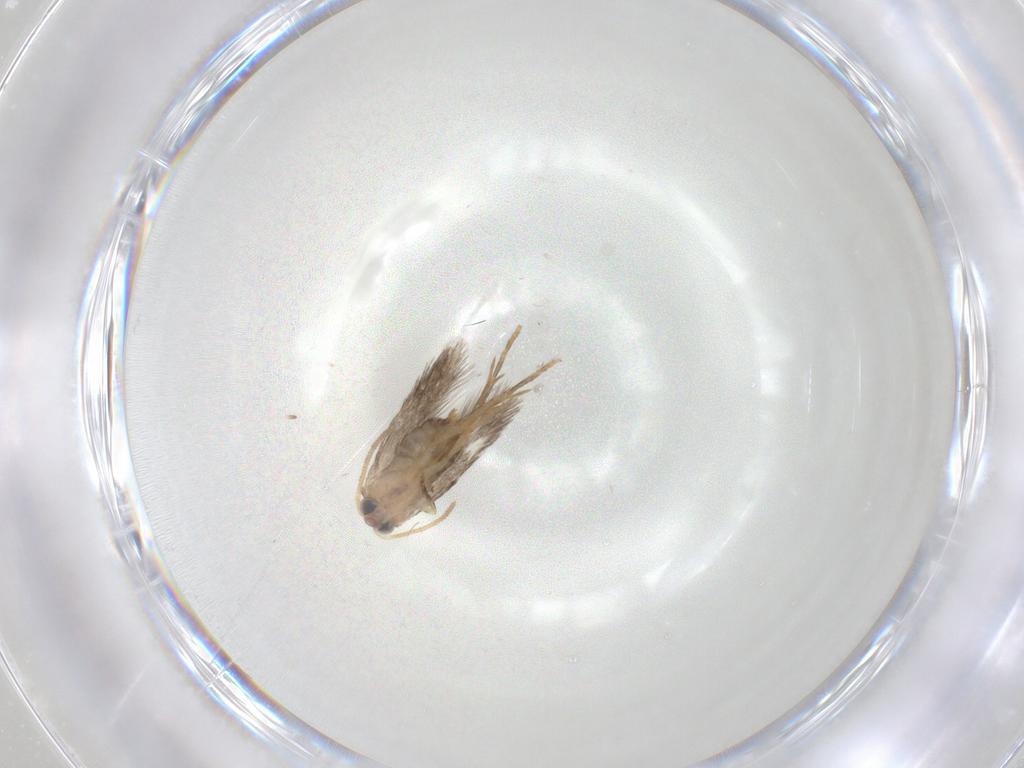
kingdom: Animalia
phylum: Arthropoda
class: Insecta
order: Lepidoptera
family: Nepticulidae
